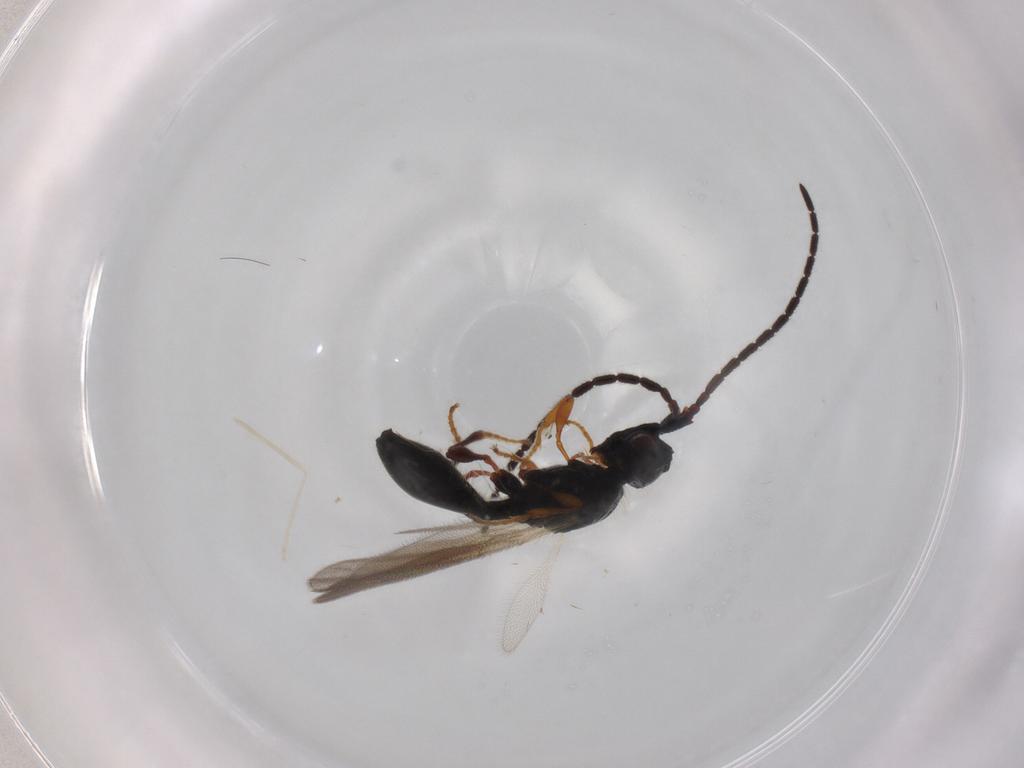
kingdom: Animalia
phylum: Arthropoda
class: Insecta
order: Hymenoptera
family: Diapriidae
